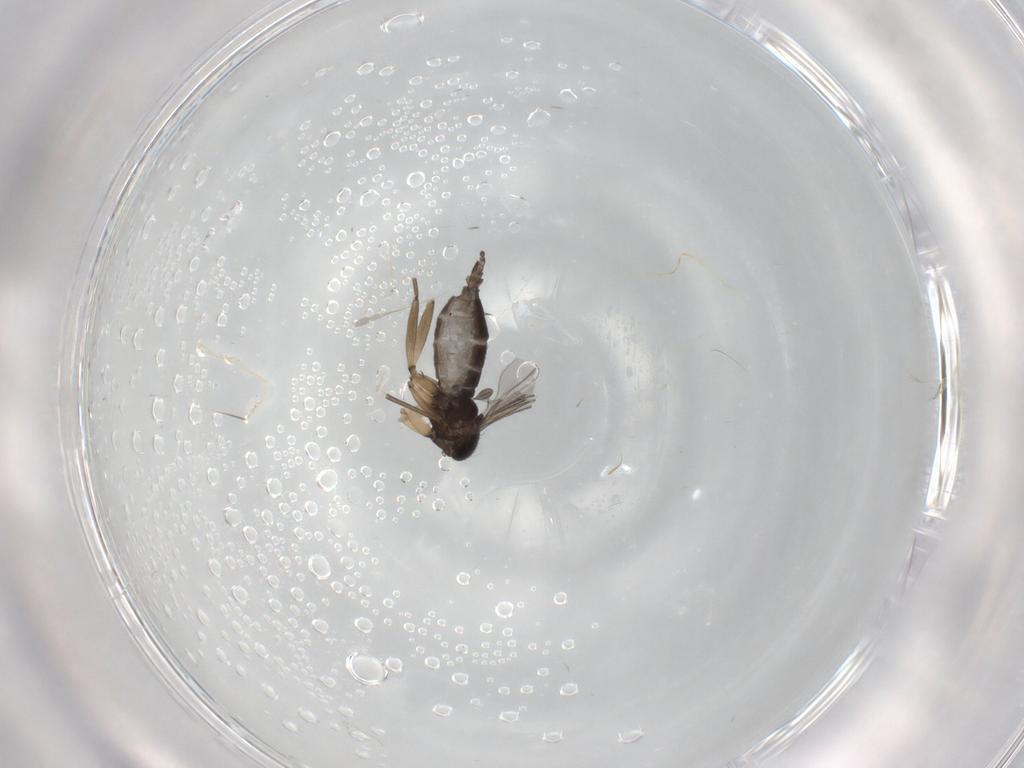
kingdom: Animalia
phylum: Arthropoda
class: Insecta
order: Diptera
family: Sciaridae
